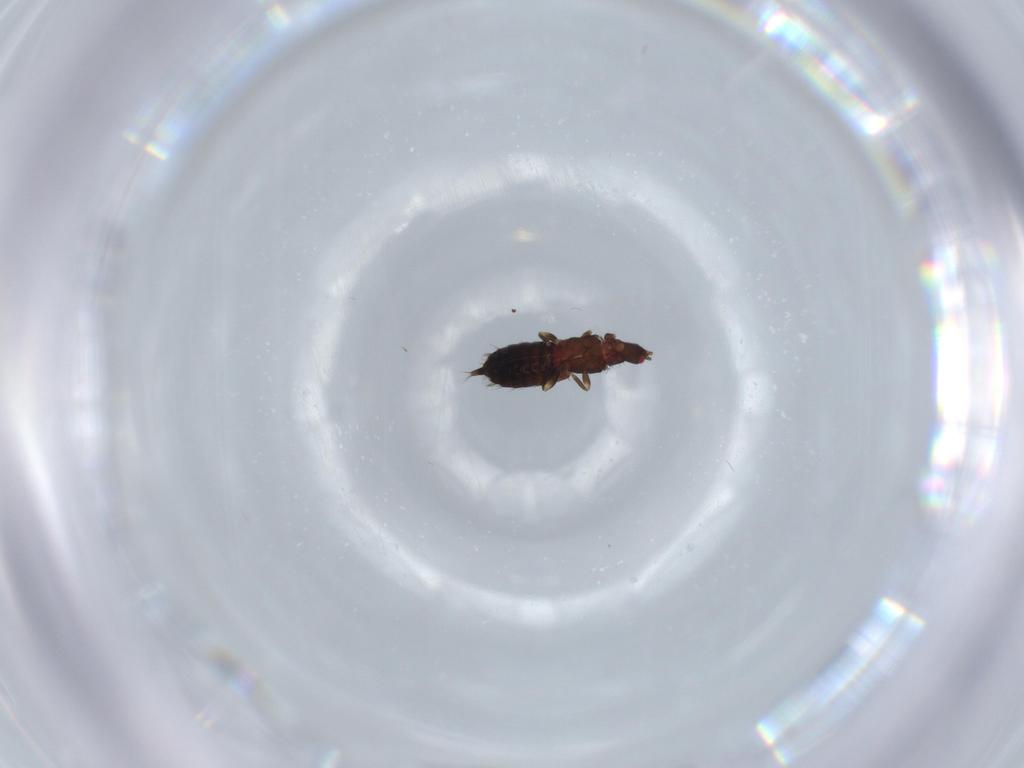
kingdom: Animalia
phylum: Arthropoda
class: Insecta
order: Thysanoptera
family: Phlaeothripidae
